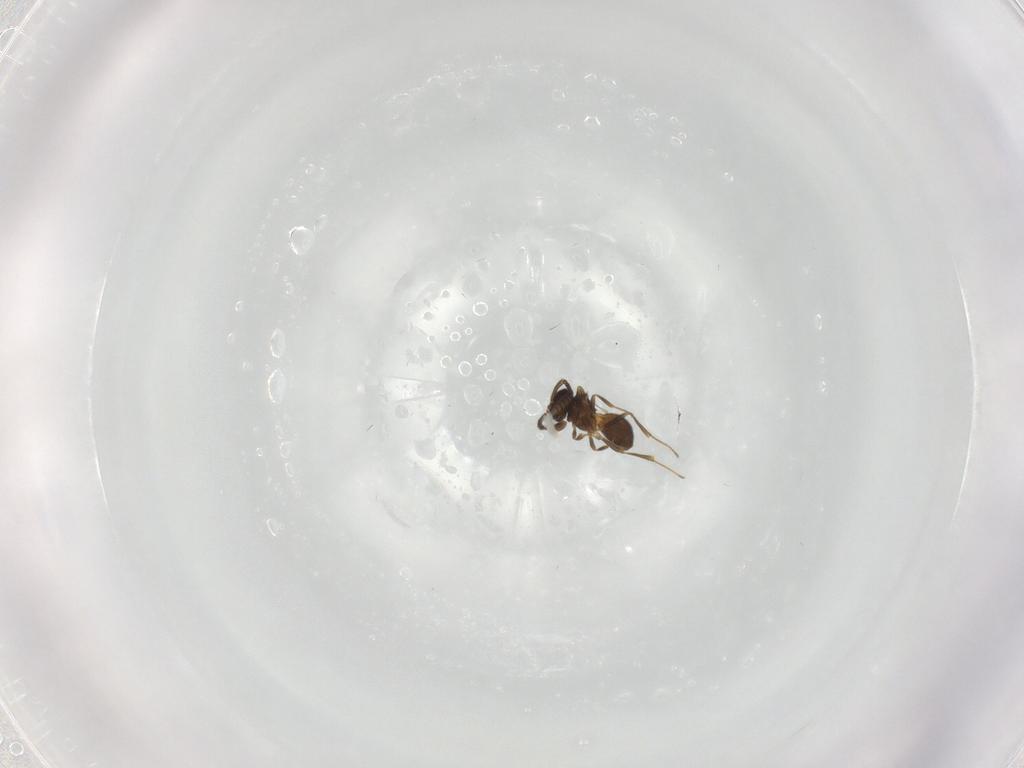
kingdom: Animalia
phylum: Arthropoda
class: Insecta
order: Hymenoptera
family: Scelionidae
